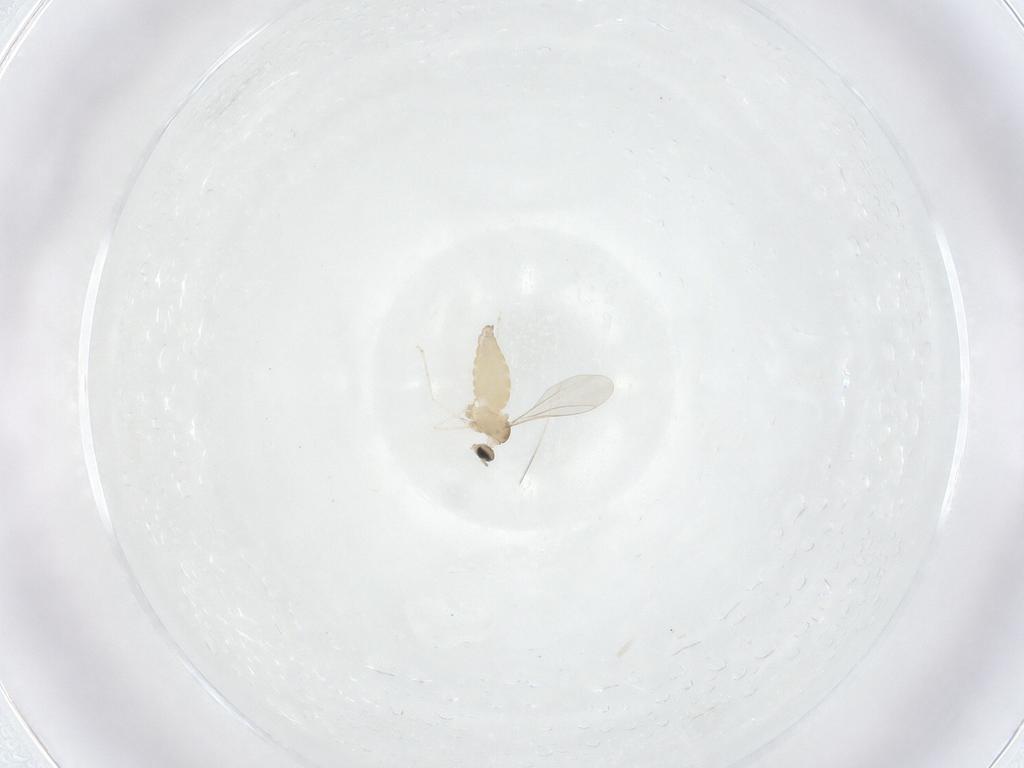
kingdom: Animalia
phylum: Arthropoda
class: Insecta
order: Diptera
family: Cecidomyiidae
